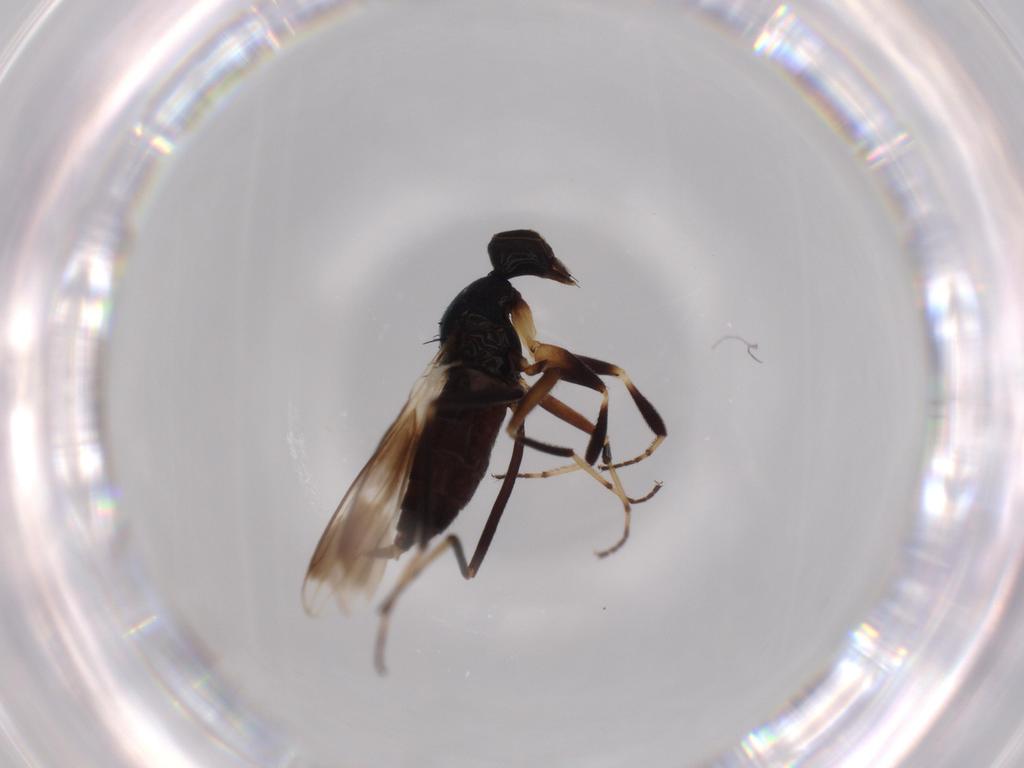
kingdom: Animalia
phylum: Arthropoda
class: Insecta
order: Diptera
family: Hybotidae
